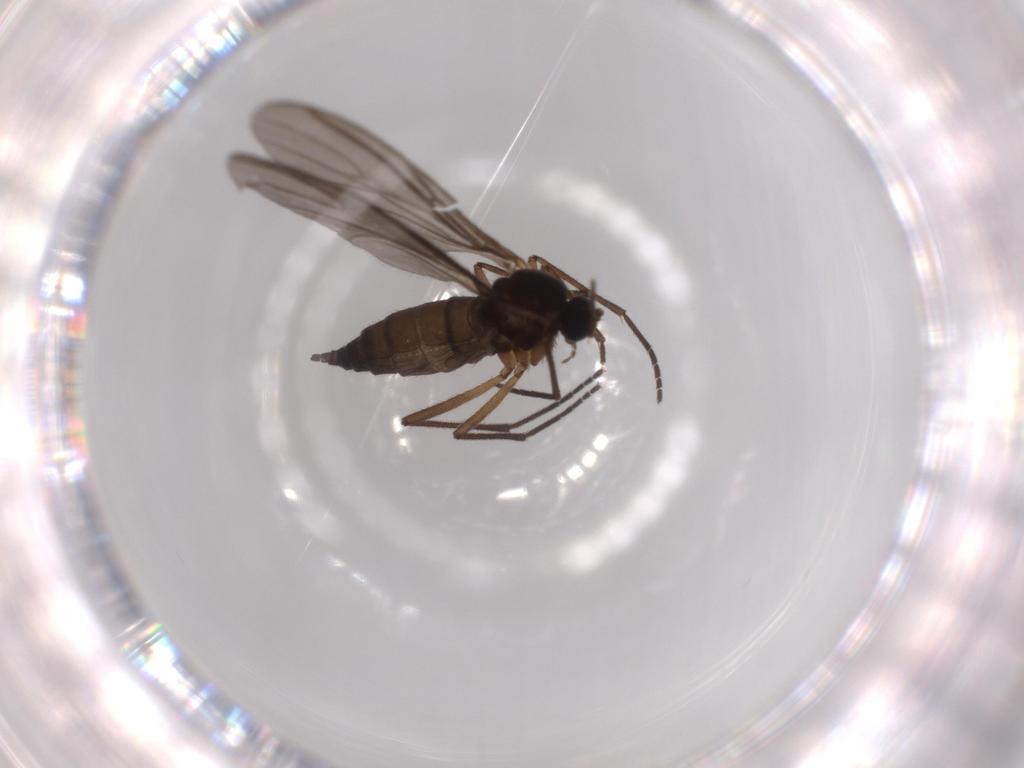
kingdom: Animalia
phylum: Arthropoda
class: Insecta
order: Diptera
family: Sciaridae
